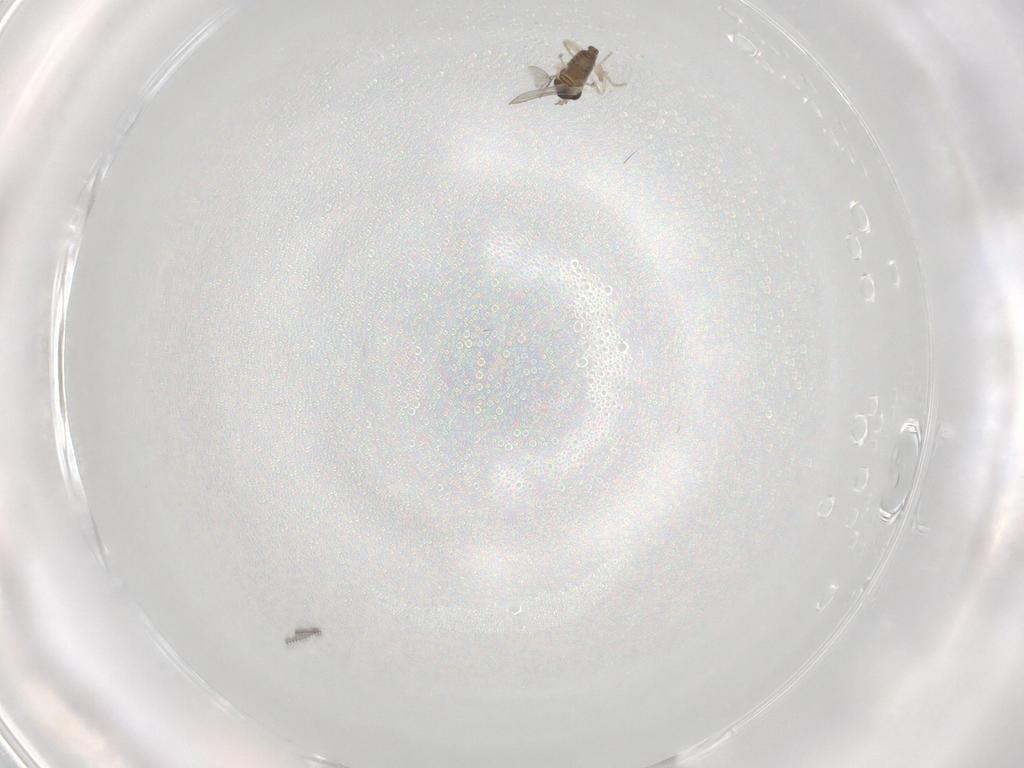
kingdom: Animalia
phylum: Arthropoda
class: Insecta
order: Diptera
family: Cecidomyiidae
